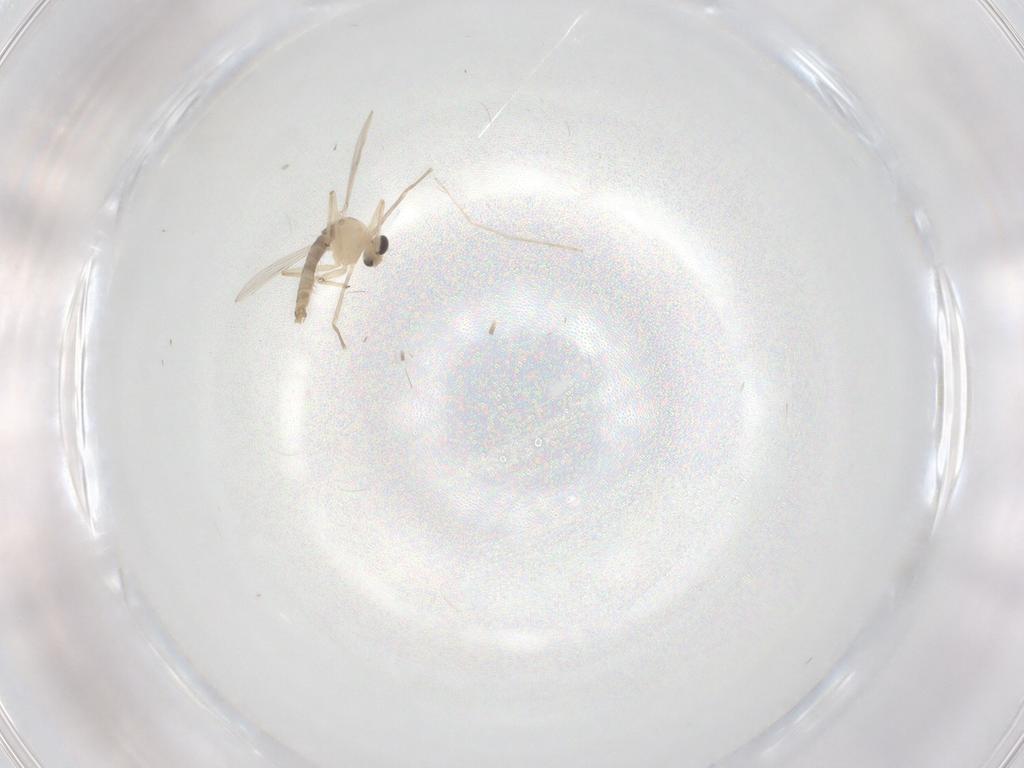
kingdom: Animalia
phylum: Arthropoda
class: Insecta
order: Diptera
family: Chironomidae
